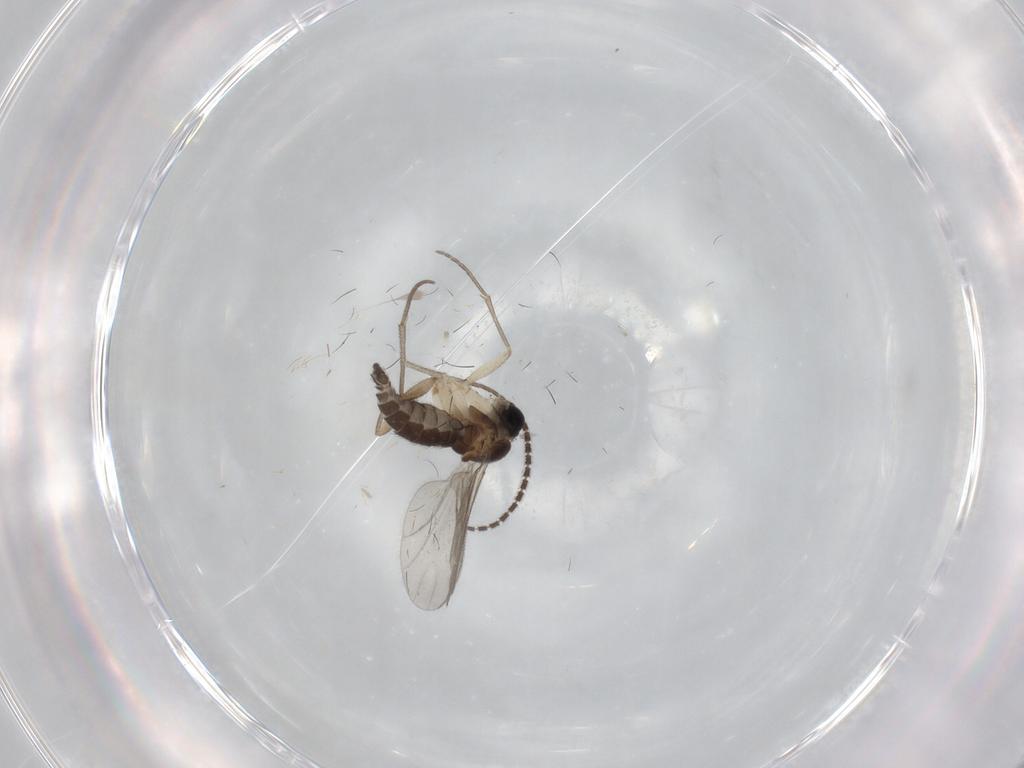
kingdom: Animalia
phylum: Arthropoda
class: Insecta
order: Diptera
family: Sciaridae
